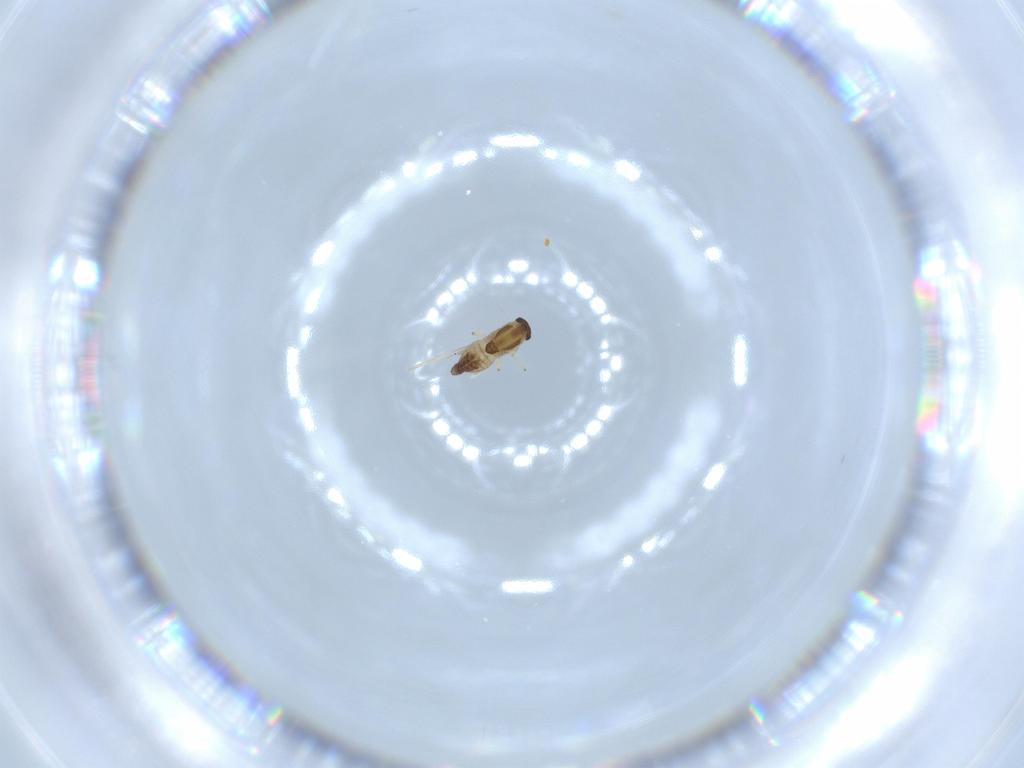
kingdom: Animalia
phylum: Arthropoda
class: Insecta
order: Diptera
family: Chironomidae
